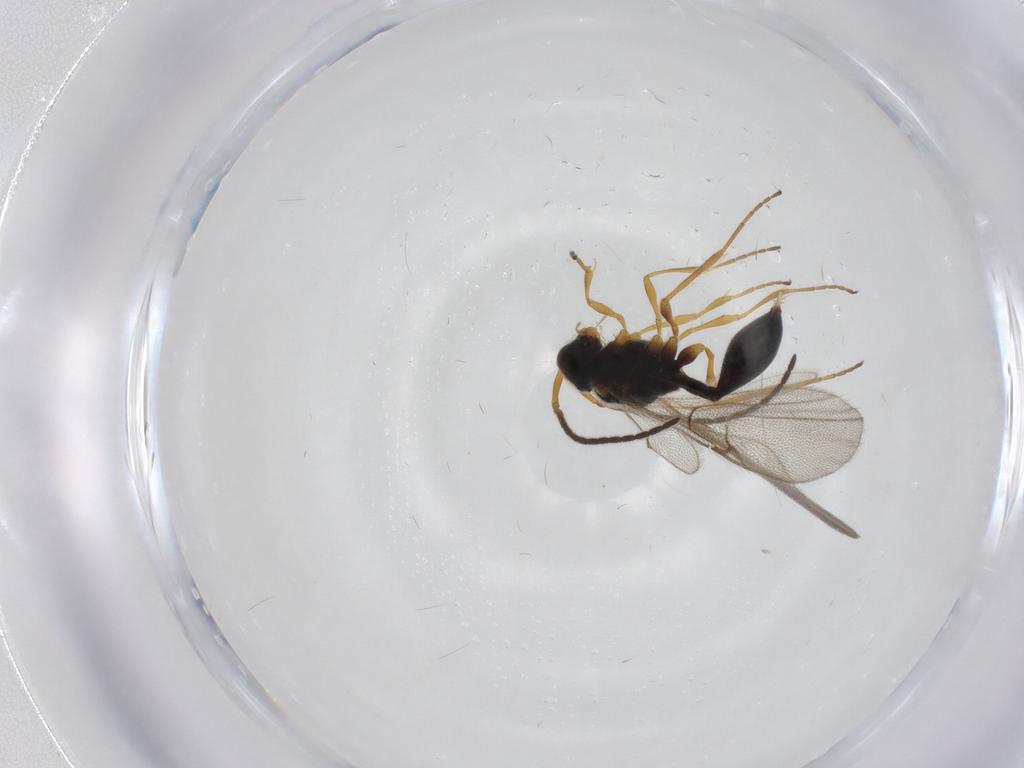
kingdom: Animalia
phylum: Arthropoda
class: Insecta
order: Hymenoptera
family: Diapriidae
